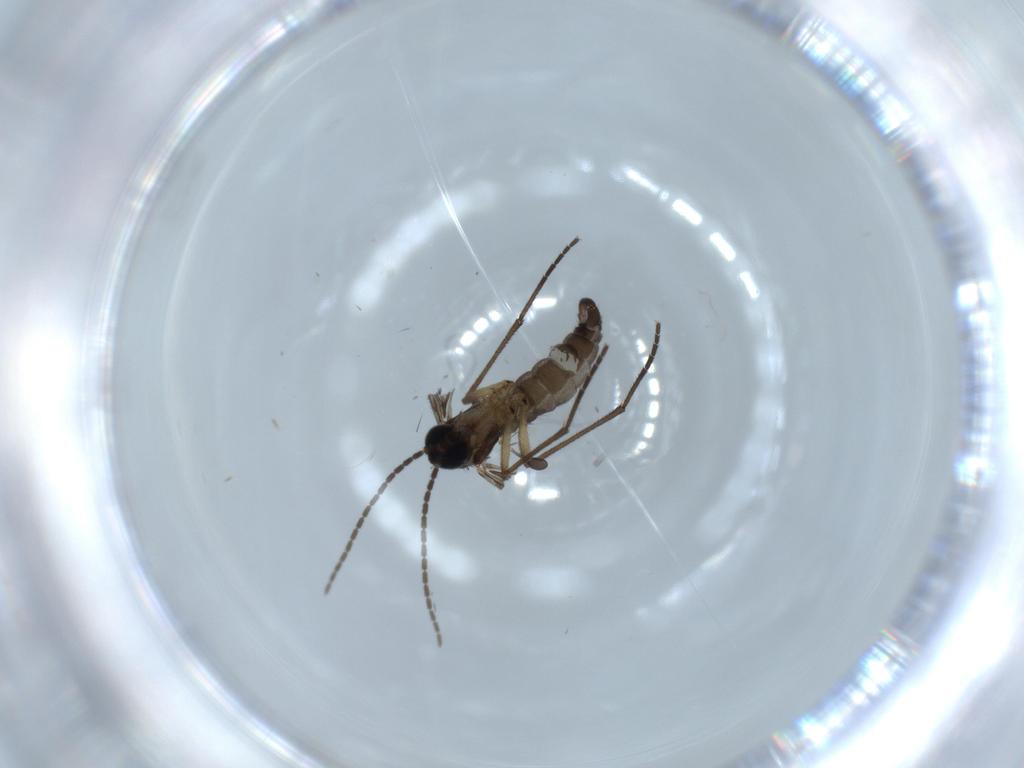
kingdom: Animalia
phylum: Arthropoda
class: Insecta
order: Diptera
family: Sciaridae
